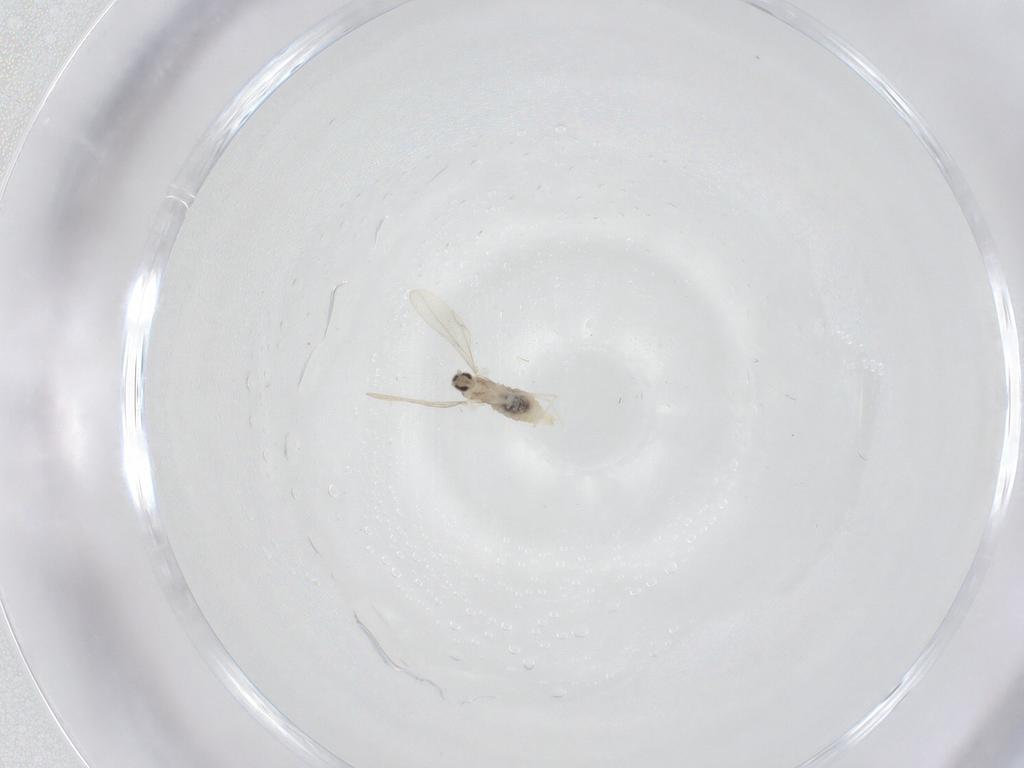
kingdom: Animalia
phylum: Arthropoda
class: Insecta
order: Diptera
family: Cecidomyiidae
